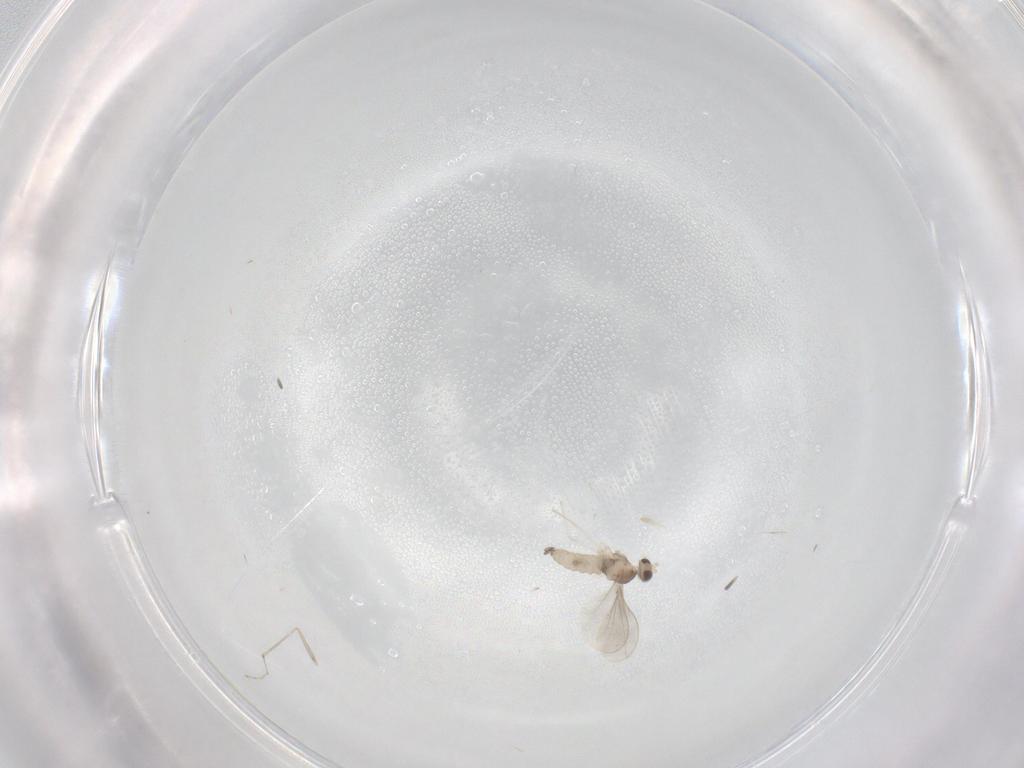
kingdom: Animalia
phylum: Arthropoda
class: Insecta
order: Diptera
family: Cecidomyiidae
